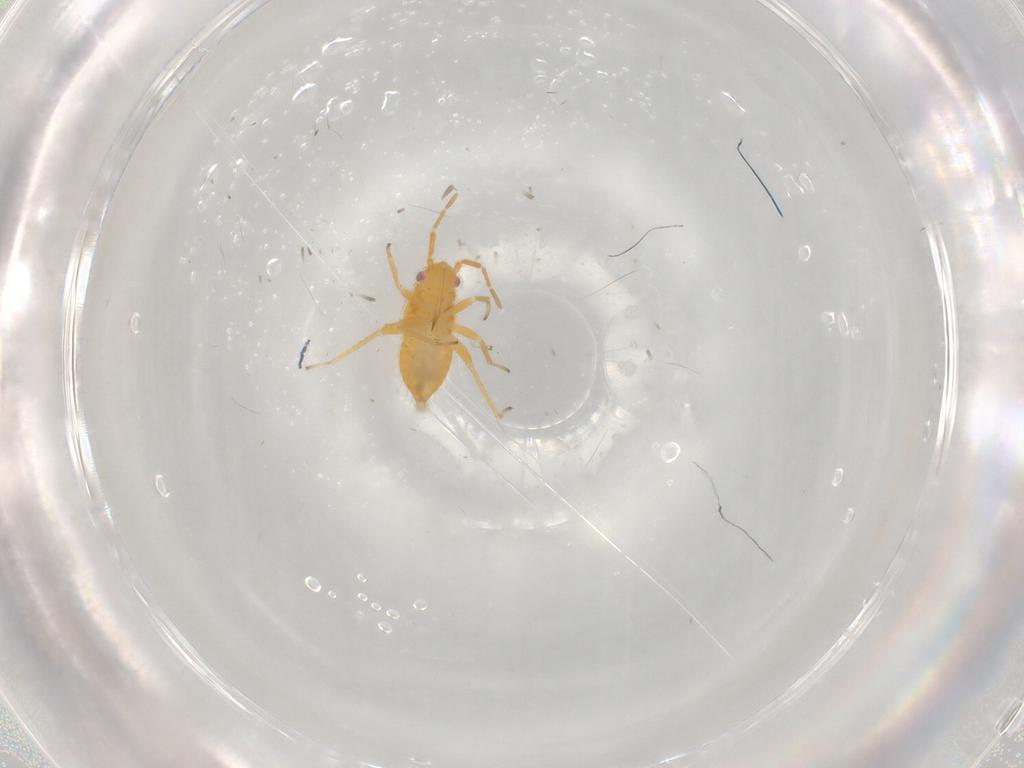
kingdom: Animalia
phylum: Arthropoda
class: Insecta
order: Hemiptera
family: Miridae
